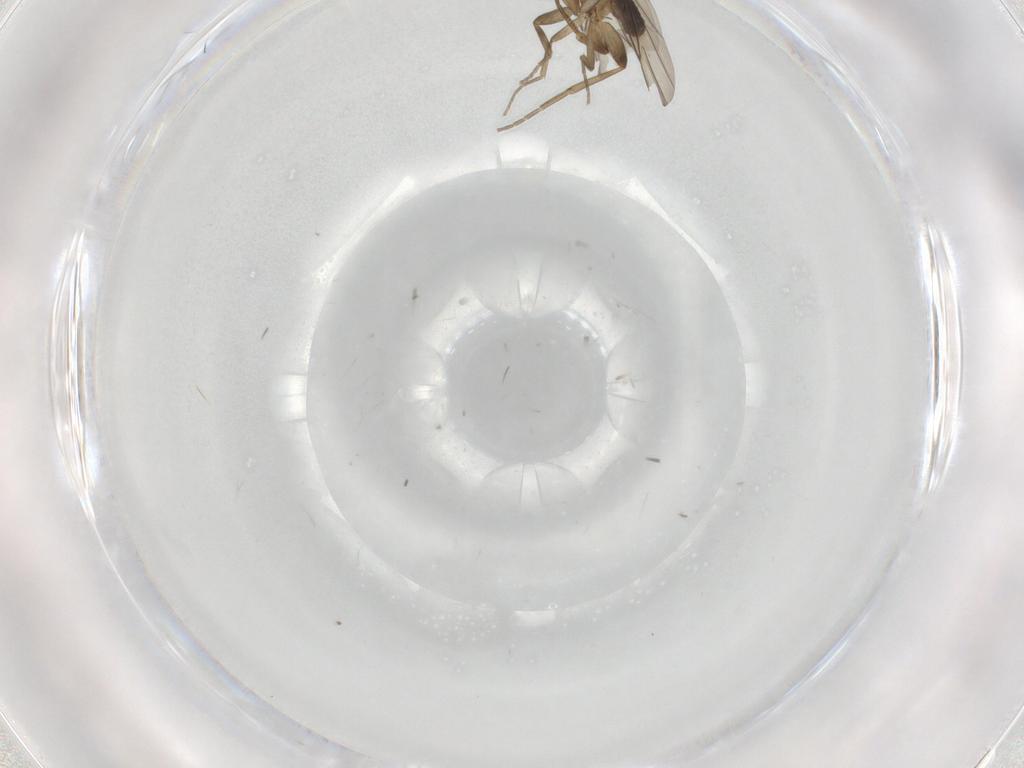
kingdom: Animalia
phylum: Arthropoda
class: Insecta
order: Diptera
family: Phoridae
